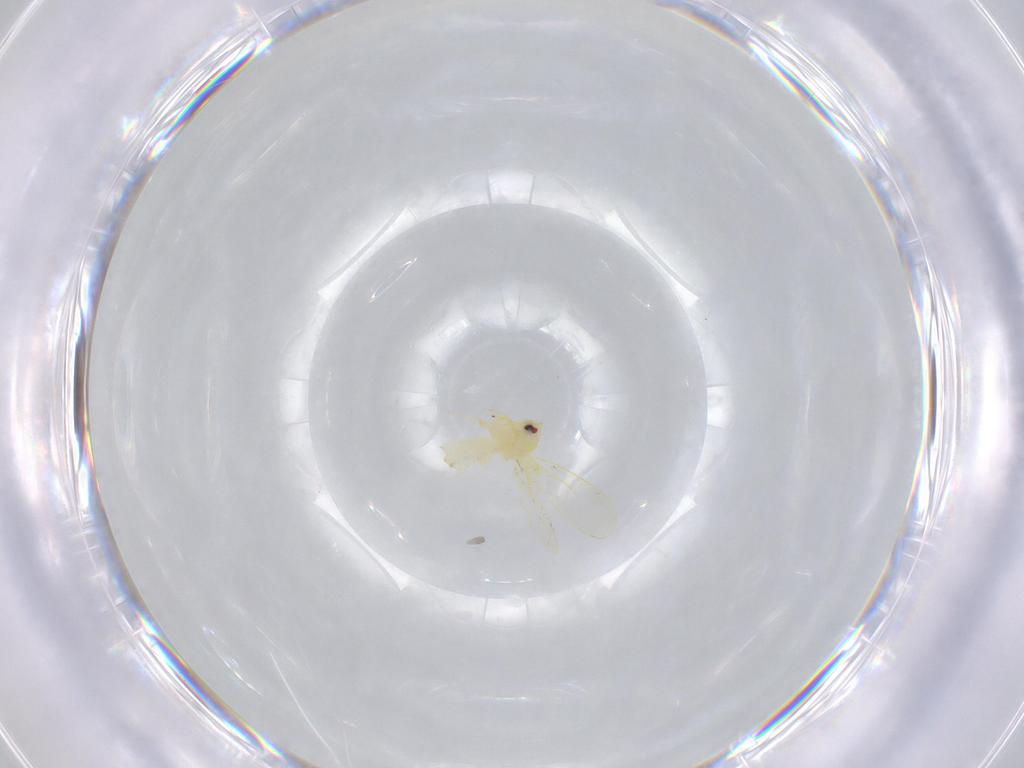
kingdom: Animalia
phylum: Arthropoda
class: Insecta
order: Hemiptera
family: Aleyrodidae
